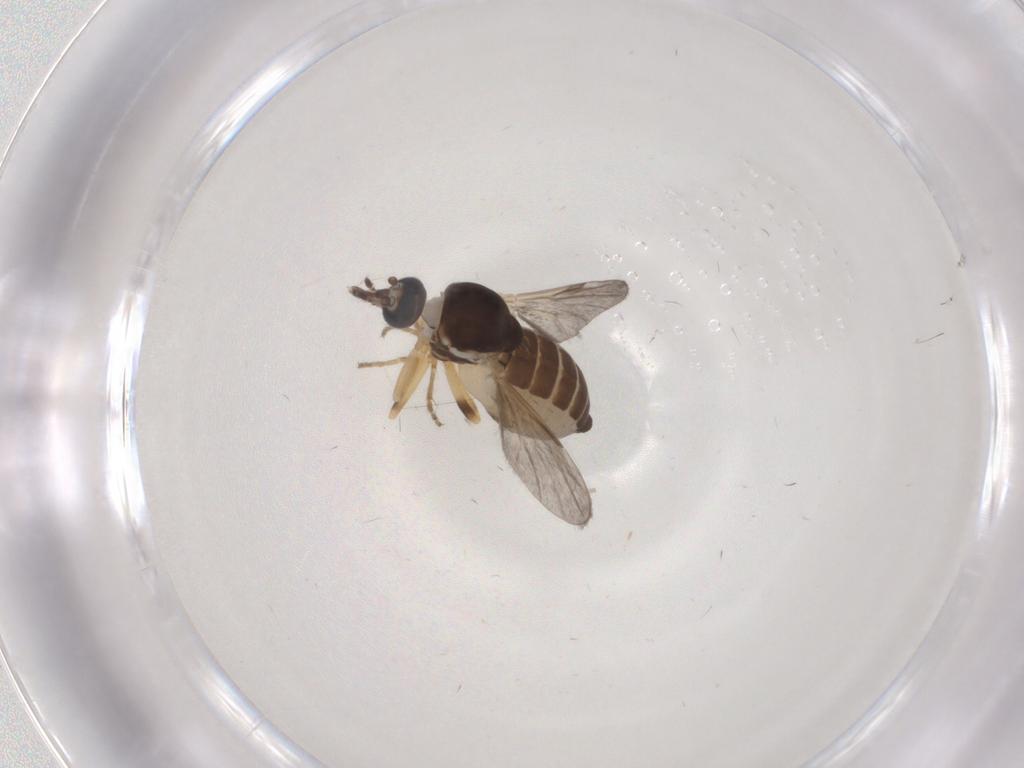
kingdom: Animalia
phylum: Arthropoda
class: Insecta
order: Diptera
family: Ceratopogonidae
